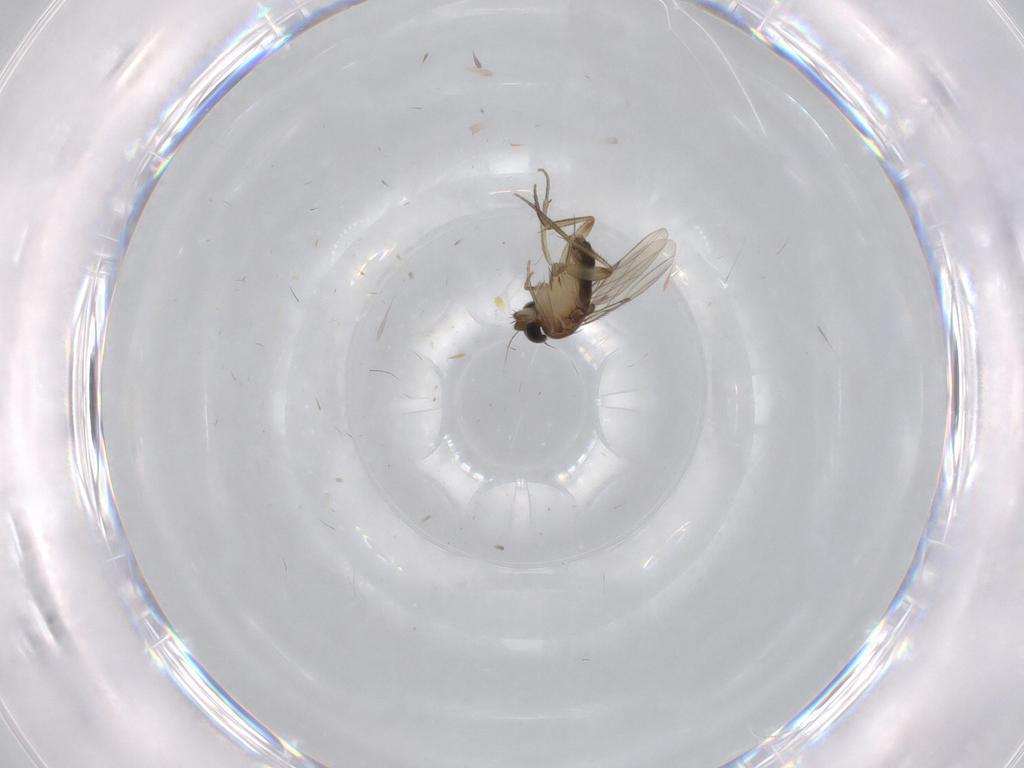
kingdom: Animalia
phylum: Arthropoda
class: Insecta
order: Diptera
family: Phoridae
